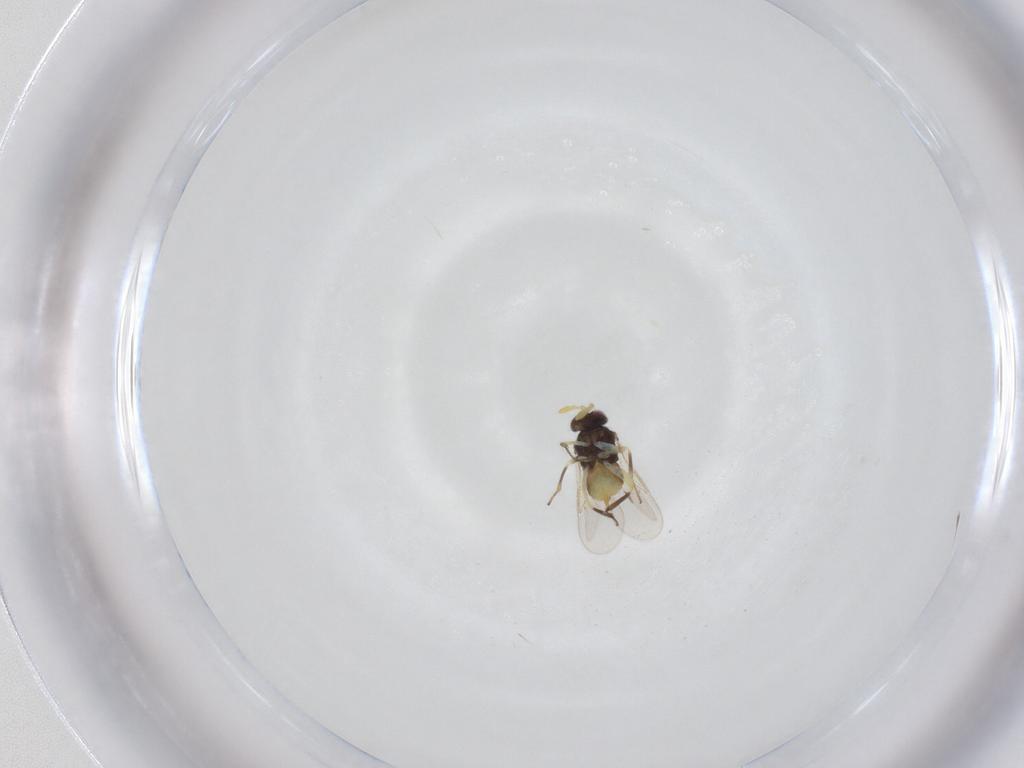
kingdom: Animalia
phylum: Arthropoda
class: Insecta
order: Hymenoptera
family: Aphelinidae
